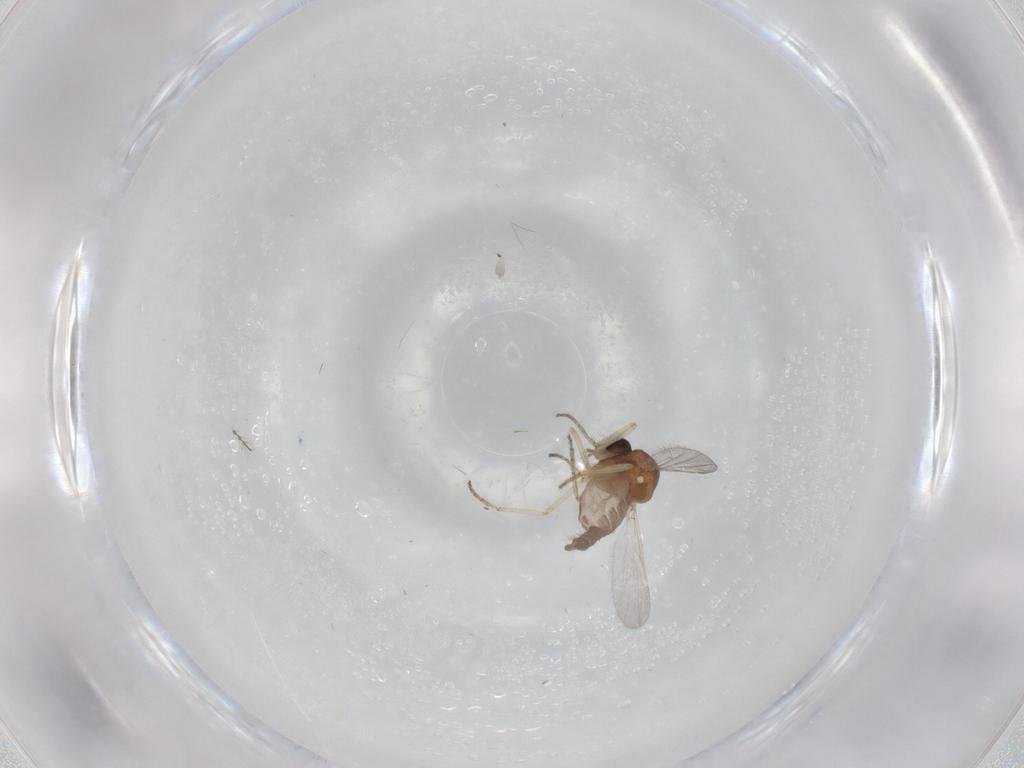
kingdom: Animalia
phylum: Arthropoda
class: Insecta
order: Diptera
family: Ceratopogonidae
